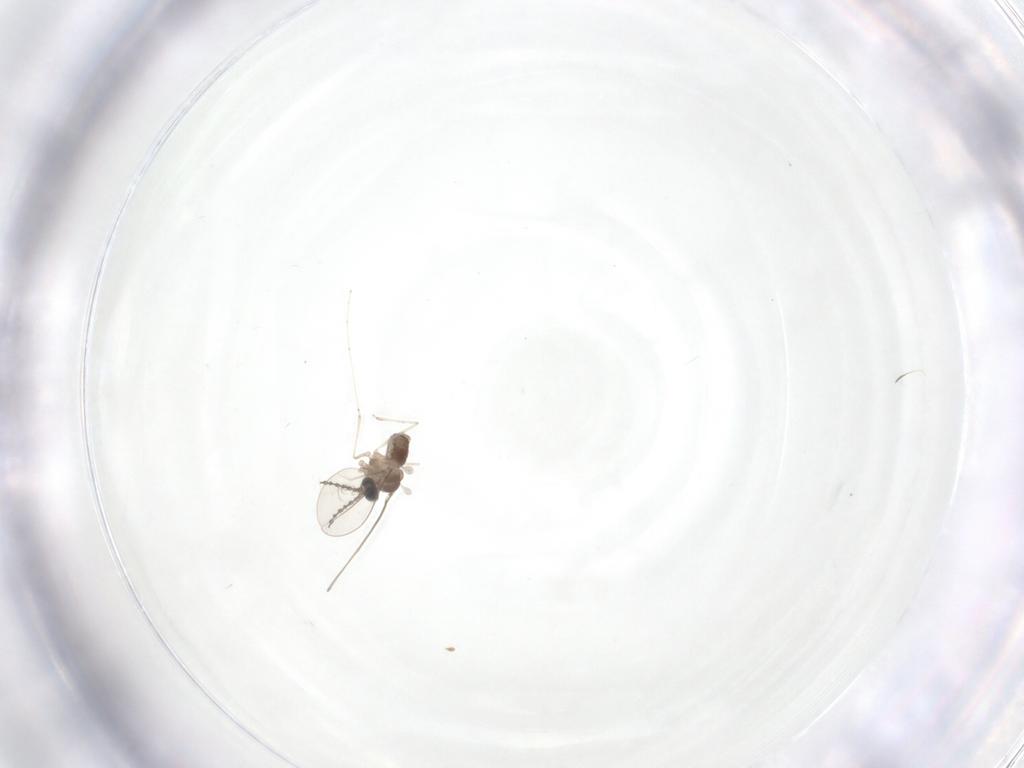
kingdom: Animalia
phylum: Arthropoda
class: Insecta
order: Diptera
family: Cecidomyiidae
